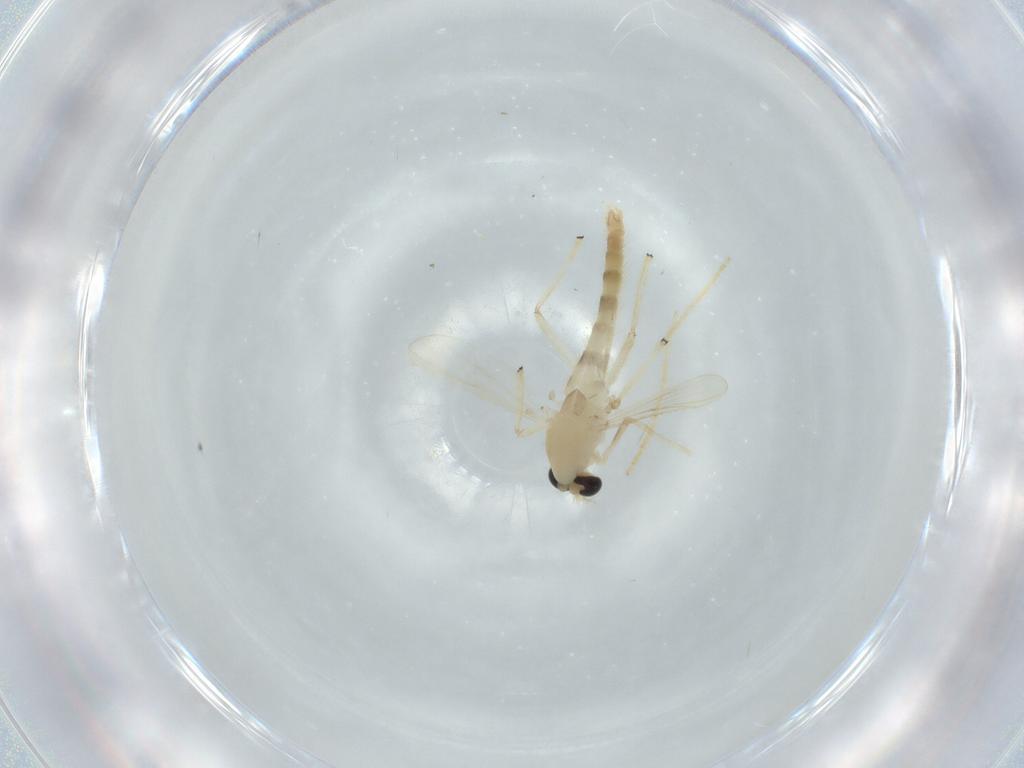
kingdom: Animalia
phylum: Arthropoda
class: Insecta
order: Diptera
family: Chironomidae
